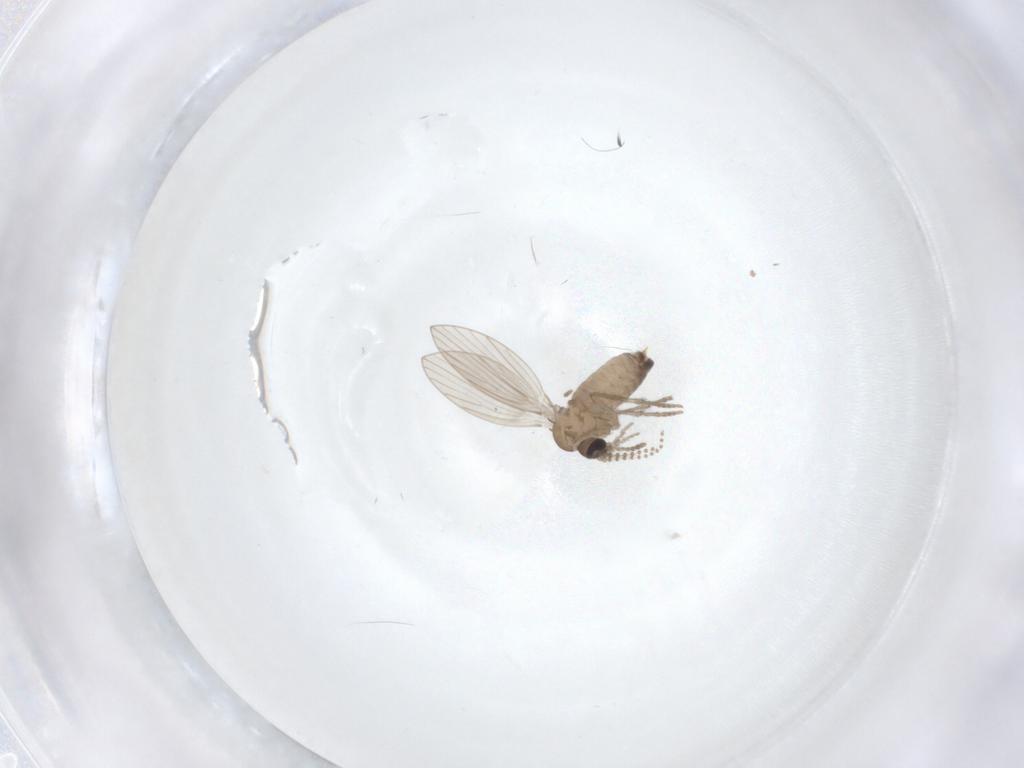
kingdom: Animalia
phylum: Arthropoda
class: Insecta
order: Diptera
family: Psychodidae
